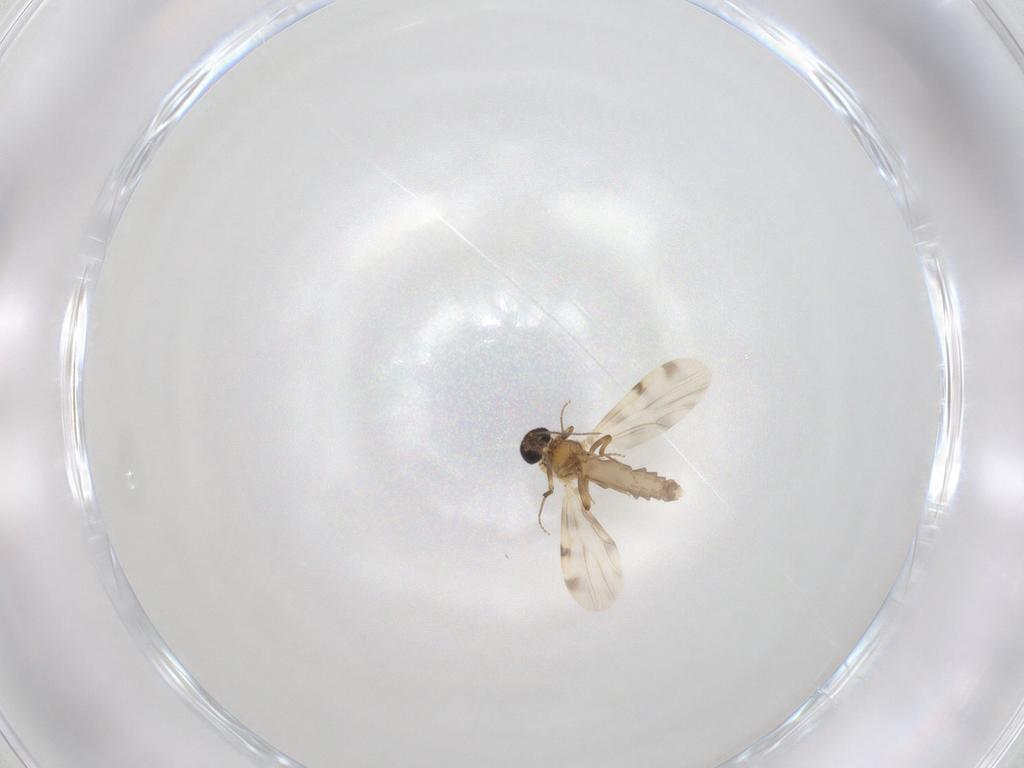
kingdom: Animalia
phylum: Arthropoda
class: Insecta
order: Diptera
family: Ceratopogonidae
